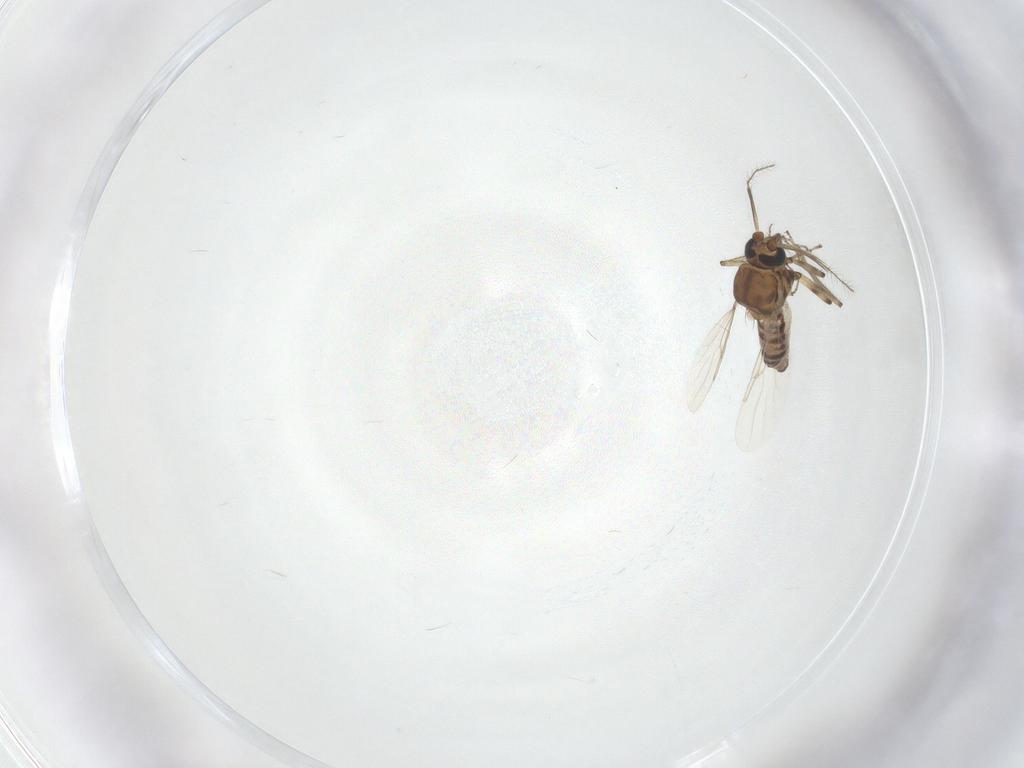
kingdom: Animalia
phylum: Arthropoda
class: Insecta
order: Diptera
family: Ceratopogonidae
